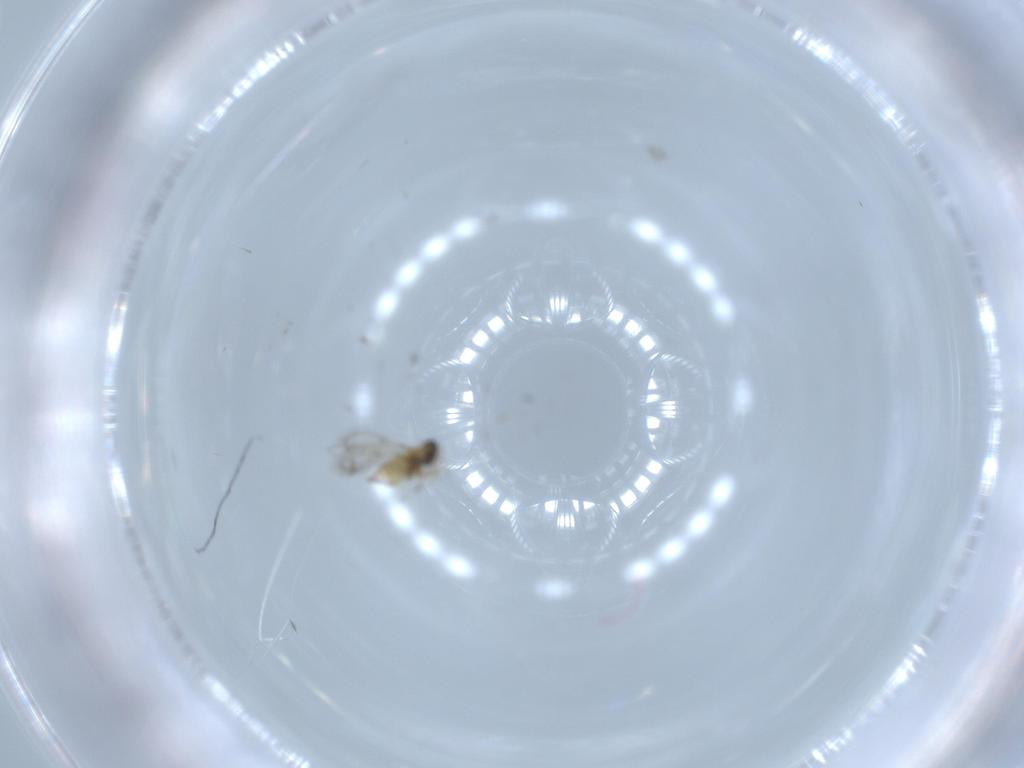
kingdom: Animalia
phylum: Arthropoda
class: Insecta
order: Hymenoptera
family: Trichogrammatidae
